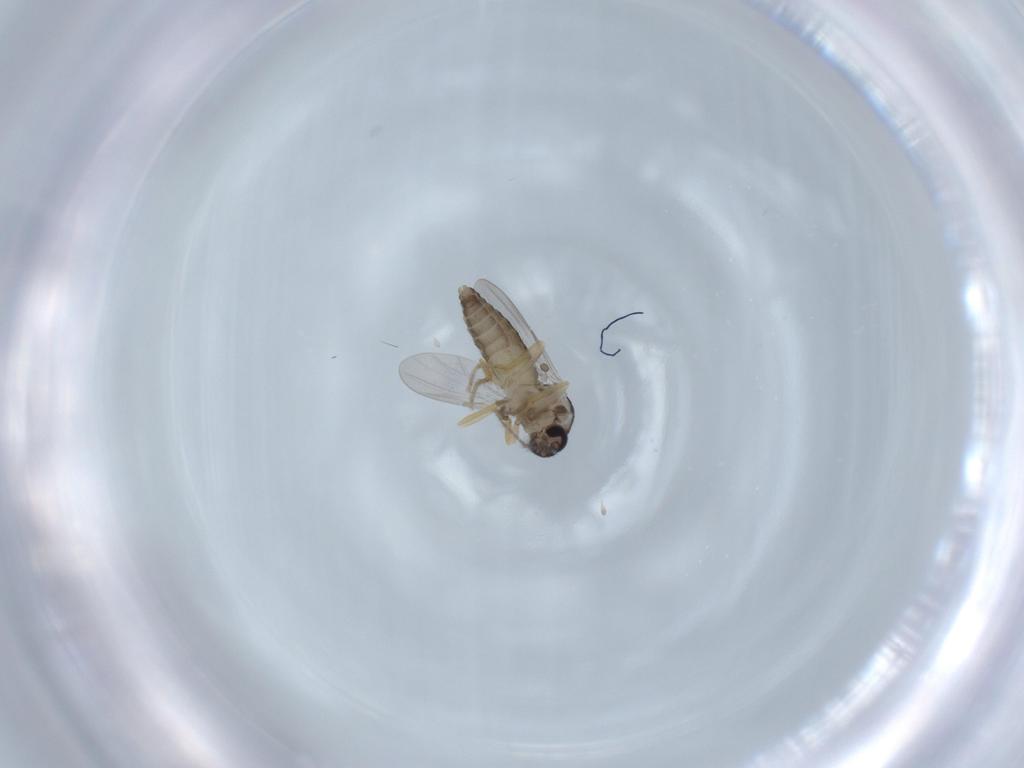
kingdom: Animalia
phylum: Arthropoda
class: Insecta
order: Diptera
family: Ceratopogonidae
